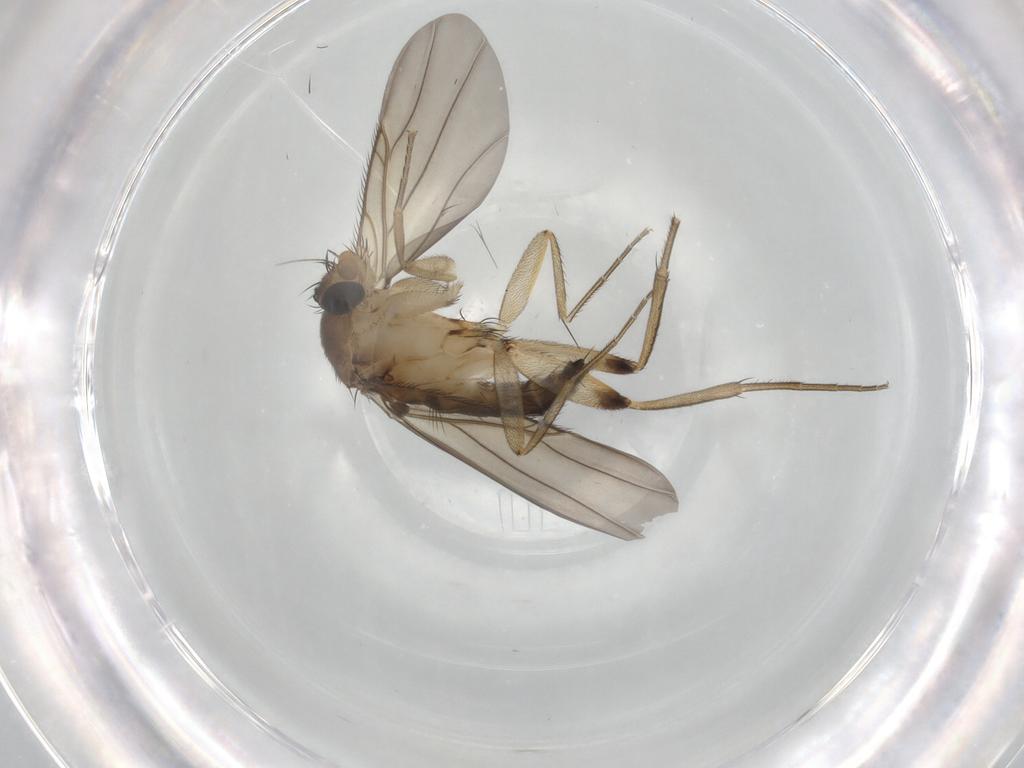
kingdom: Animalia
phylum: Arthropoda
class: Insecta
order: Diptera
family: Phoridae
